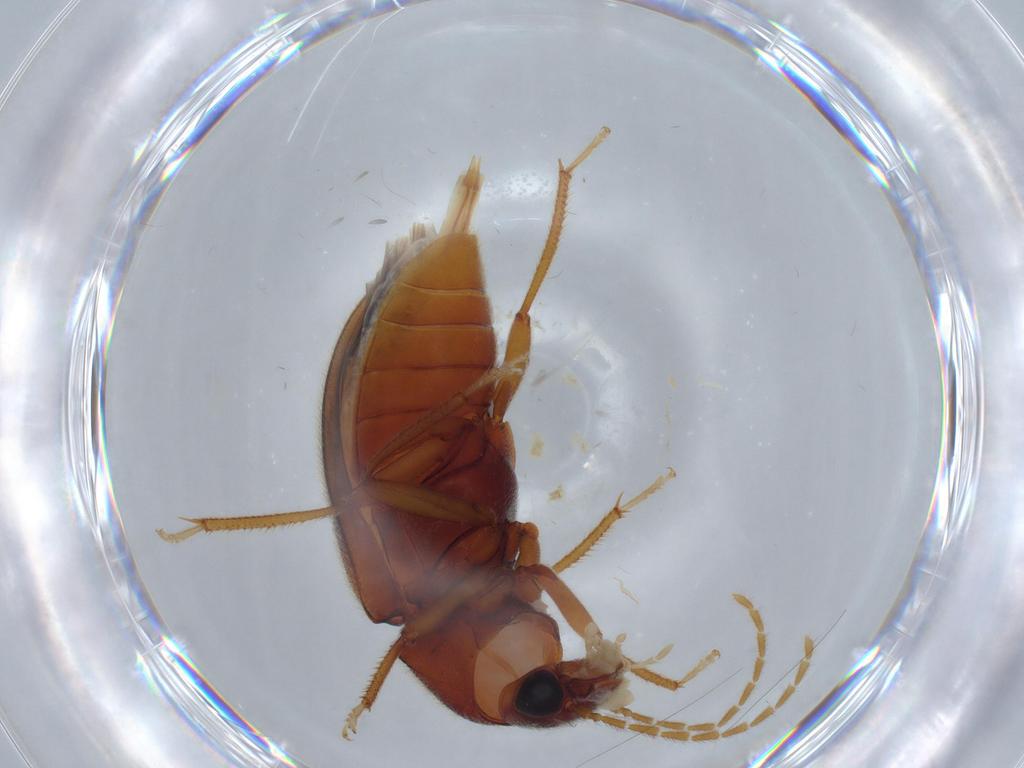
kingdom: Animalia
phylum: Arthropoda
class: Insecta
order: Coleoptera
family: Ptilodactylidae
